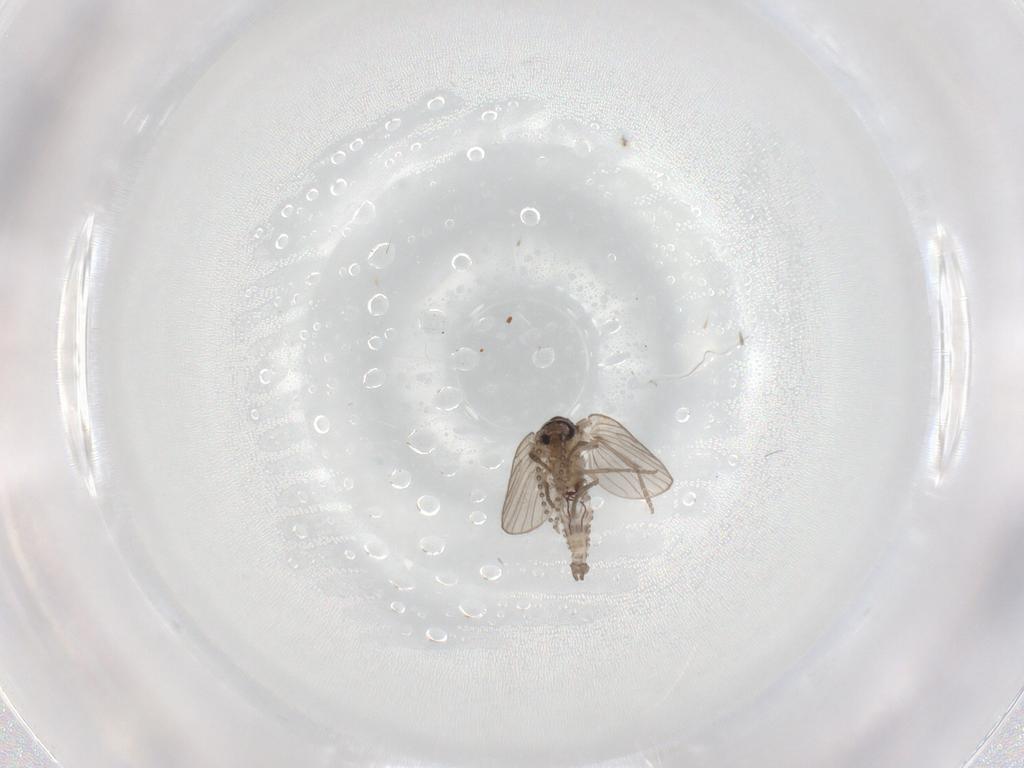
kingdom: Animalia
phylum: Arthropoda
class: Insecta
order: Diptera
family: Psychodidae
